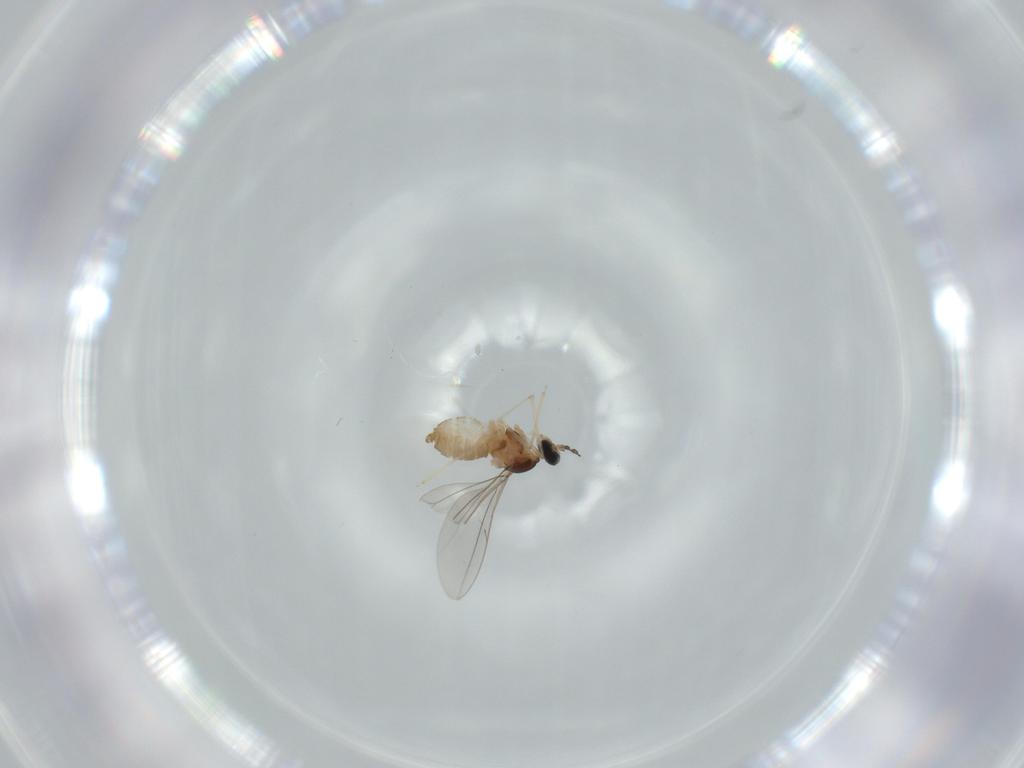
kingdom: Animalia
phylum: Arthropoda
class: Insecta
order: Diptera
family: Cecidomyiidae
